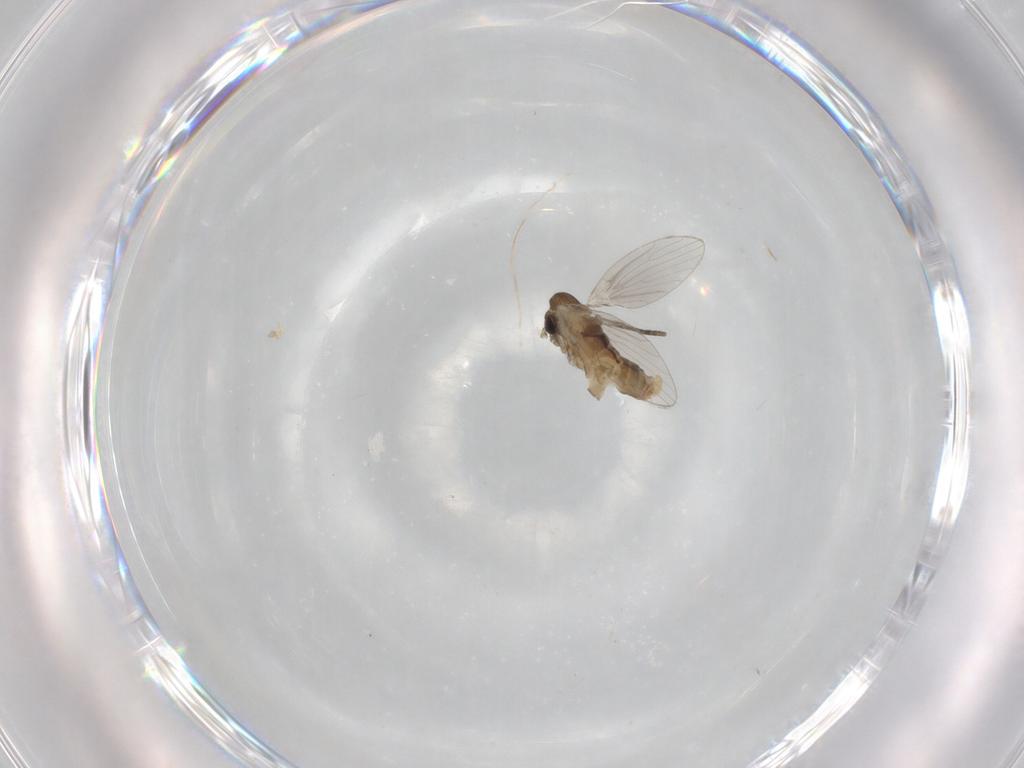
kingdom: Animalia
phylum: Arthropoda
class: Insecta
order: Diptera
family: Psychodidae
